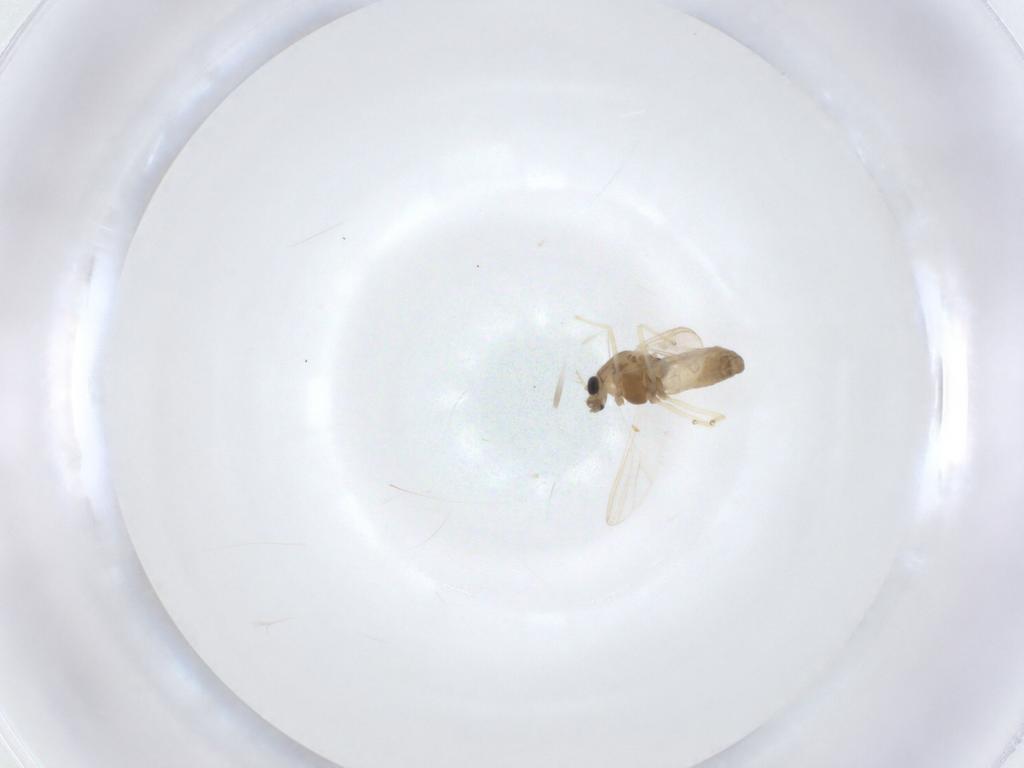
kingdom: Animalia
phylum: Arthropoda
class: Insecta
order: Diptera
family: Chironomidae
